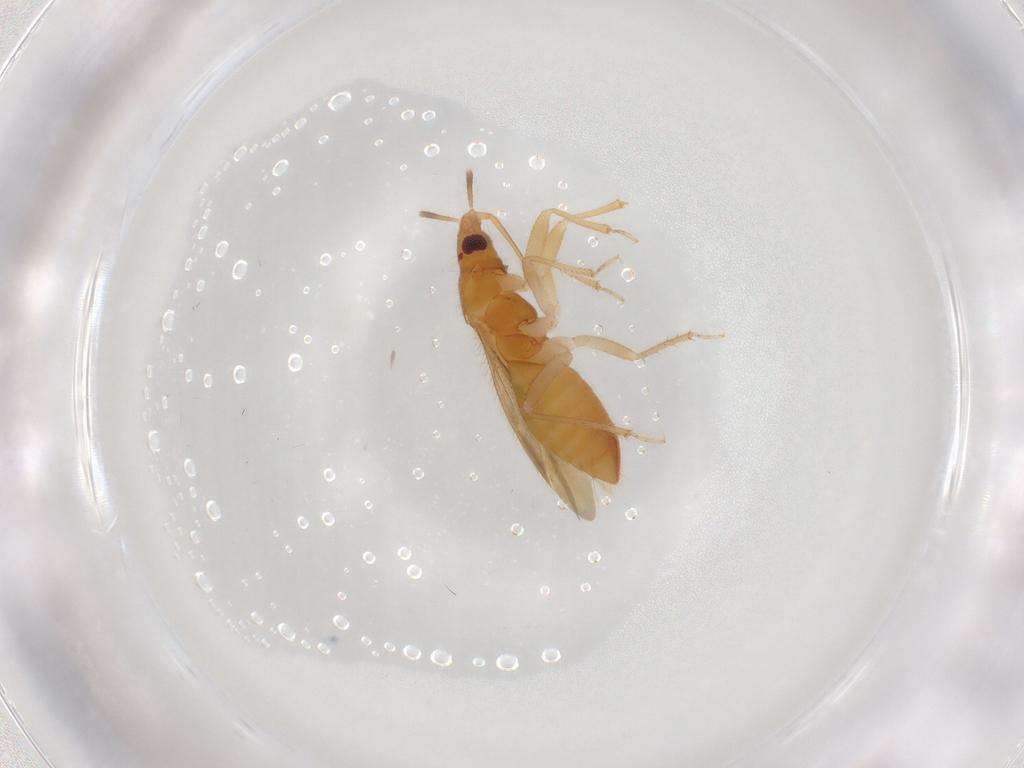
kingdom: Animalia
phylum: Arthropoda
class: Insecta
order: Hemiptera
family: Lasiochilidae
